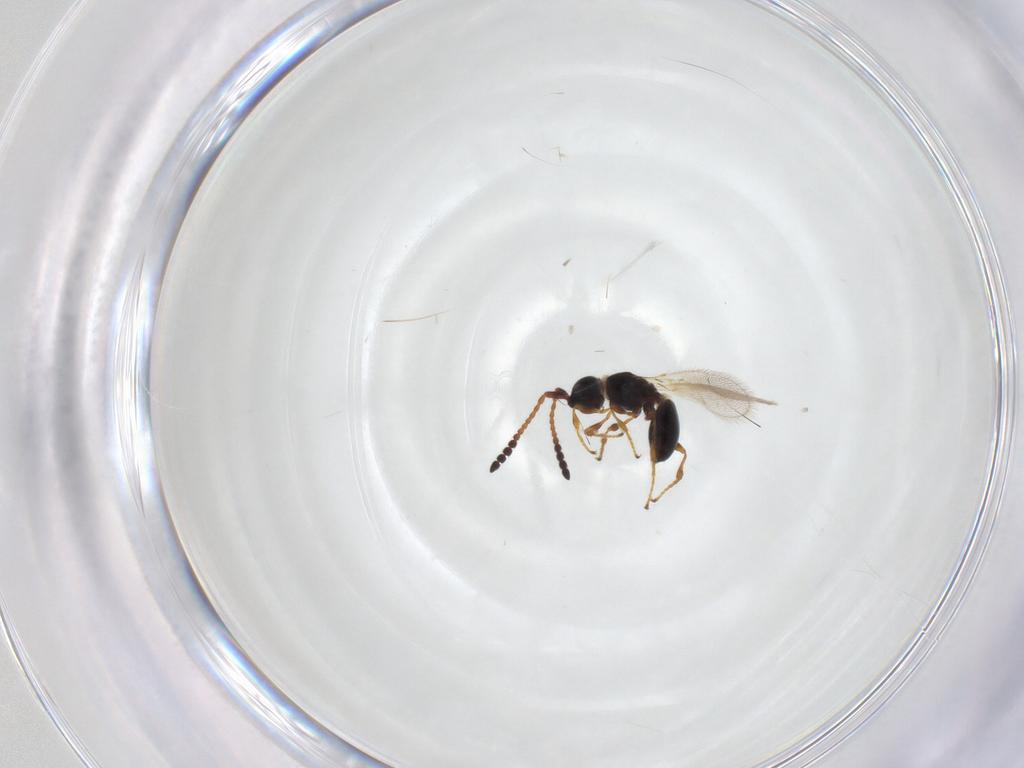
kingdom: Animalia
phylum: Arthropoda
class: Insecta
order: Hymenoptera
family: Diapriidae
